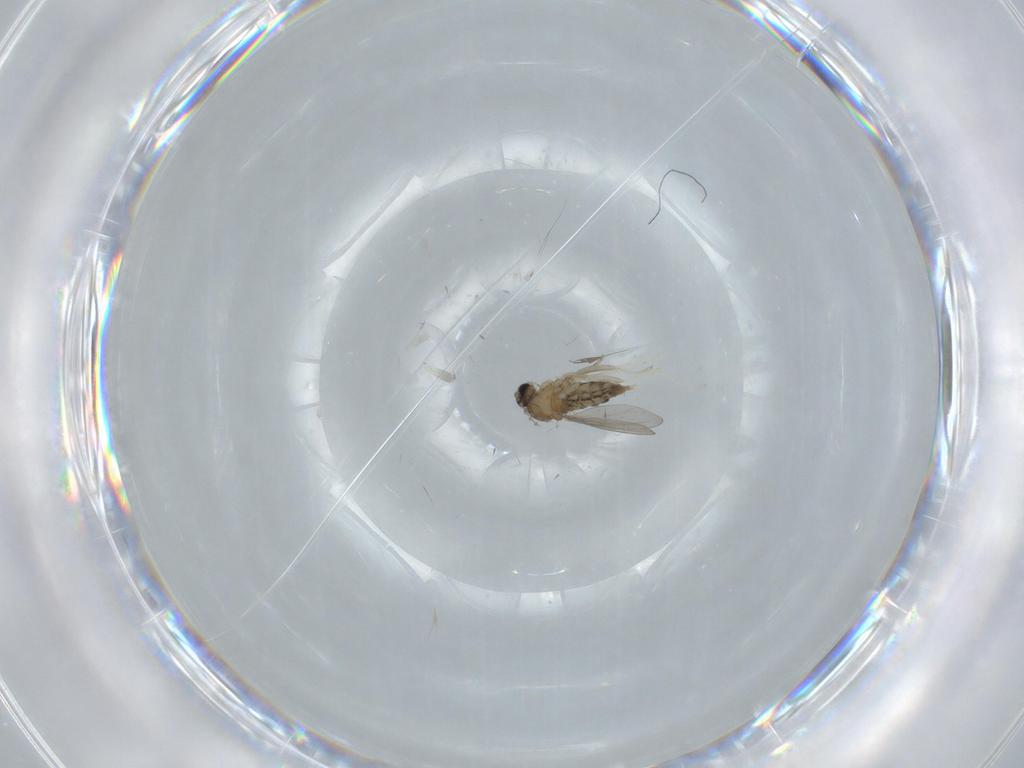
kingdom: Animalia
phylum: Arthropoda
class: Insecta
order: Diptera
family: Cecidomyiidae
